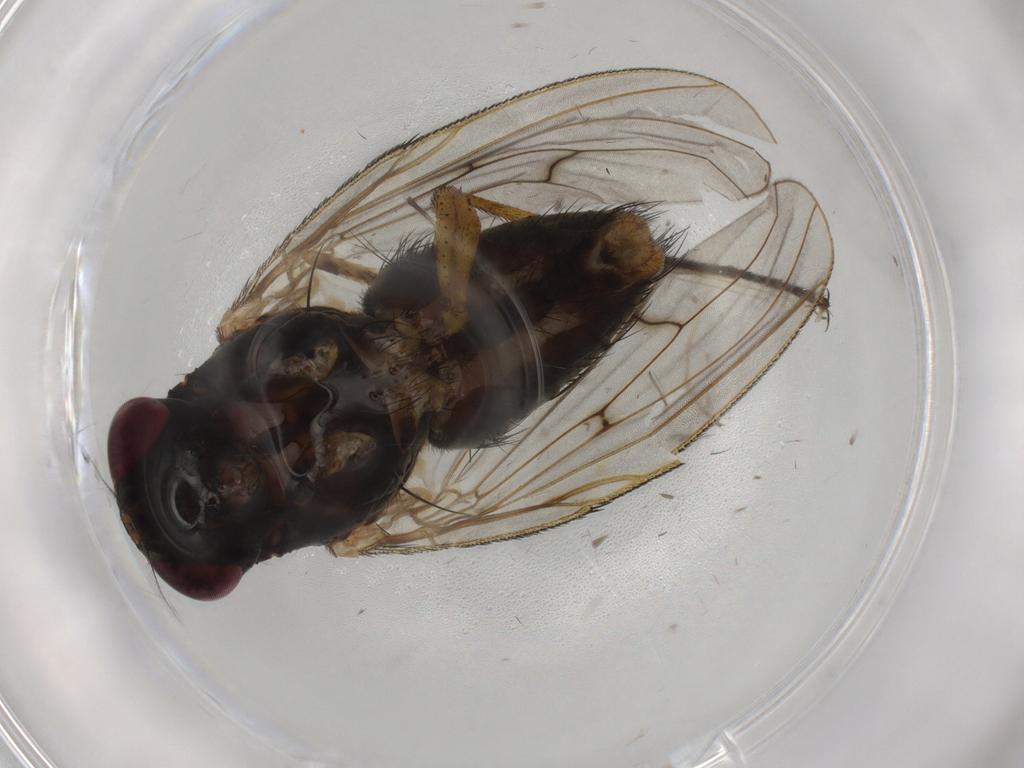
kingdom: Animalia
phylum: Arthropoda
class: Insecta
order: Diptera
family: Muscidae
